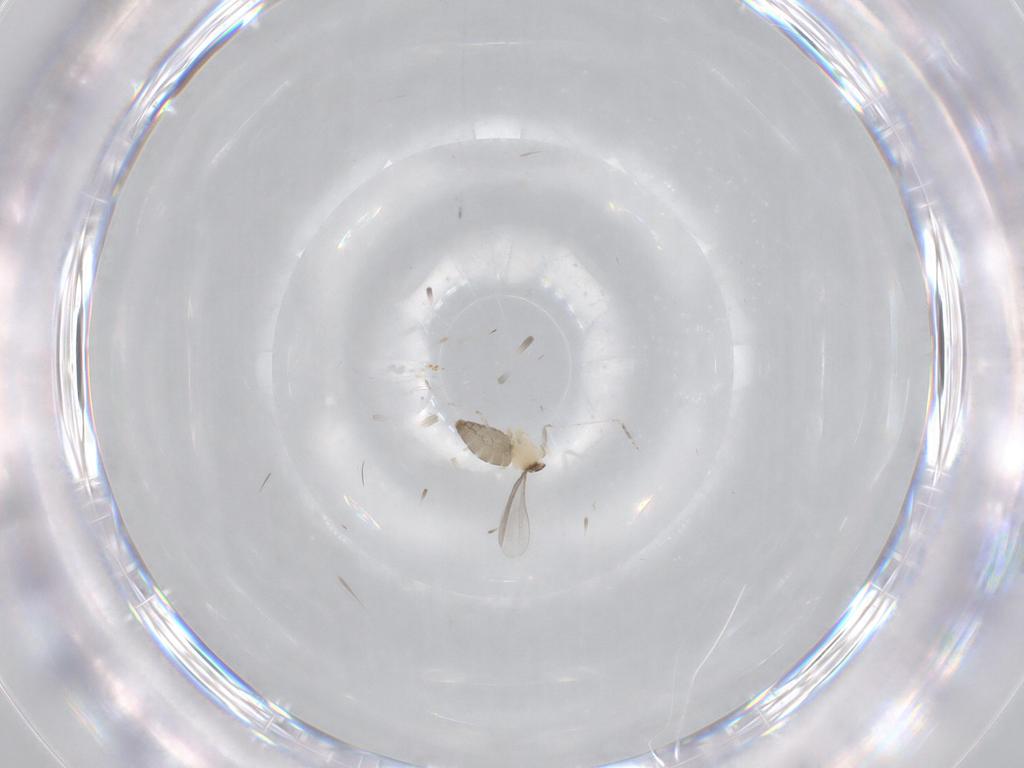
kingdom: Animalia
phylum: Arthropoda
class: Insecta
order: Diptera
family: Cecidomyiidae
